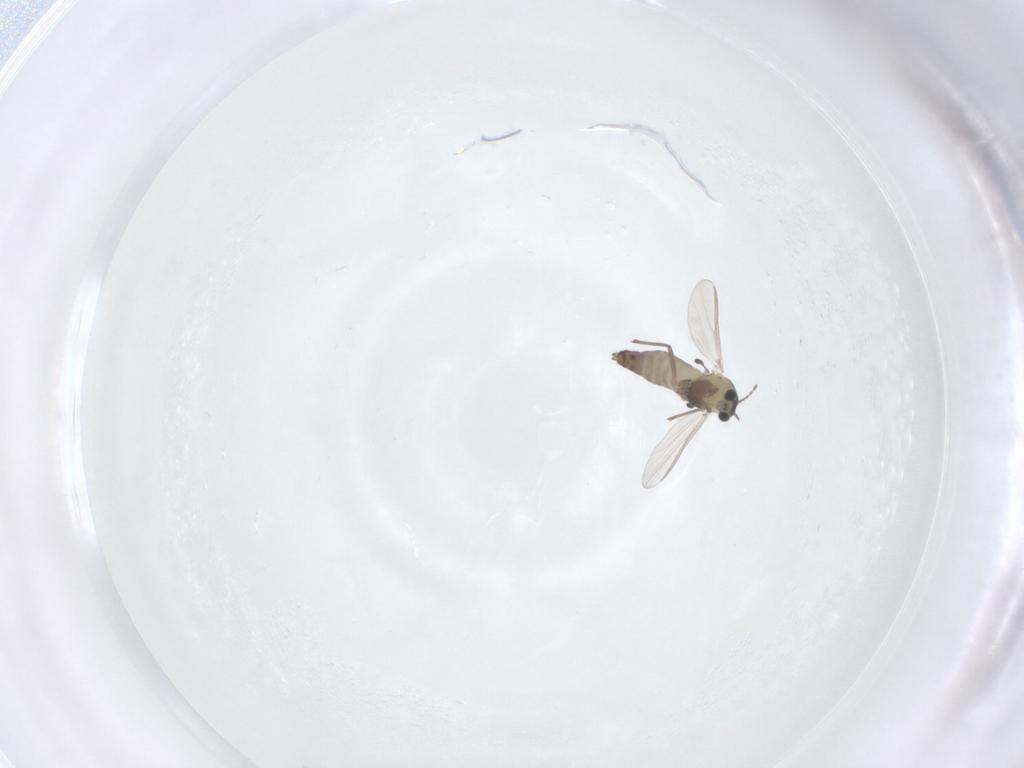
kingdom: Animalia
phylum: Arthropoda
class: Insecta
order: Diptera
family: Chironomidae
